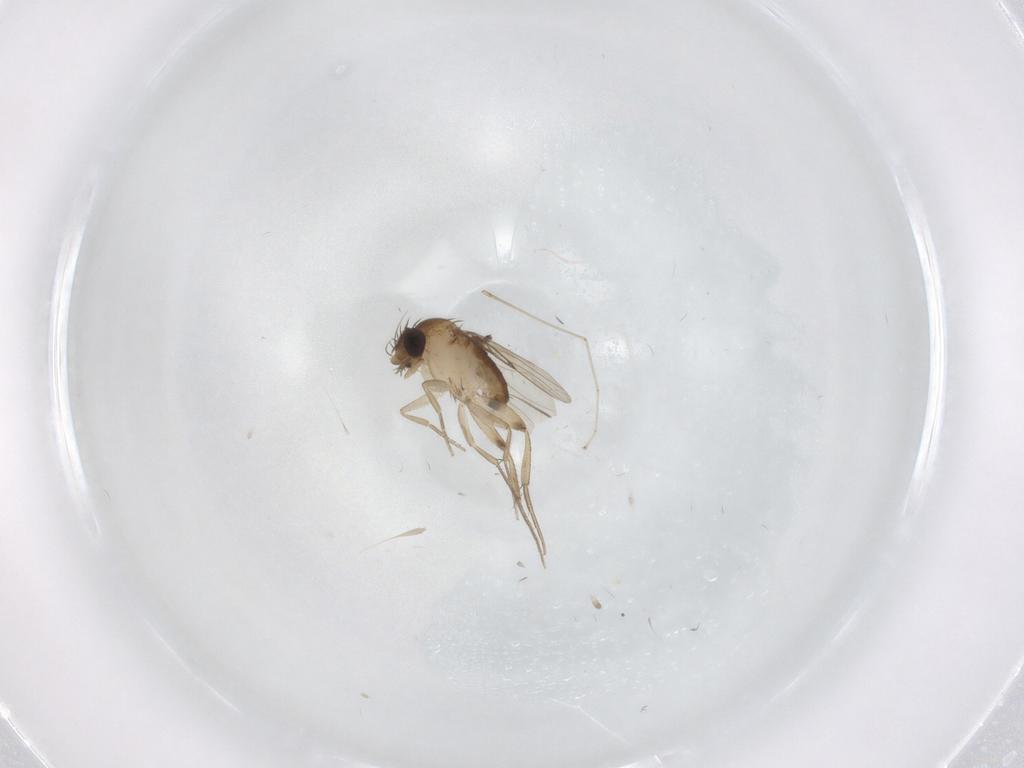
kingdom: Animalia
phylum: Arthropoda
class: Insecta
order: Diptera
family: Phoridae
